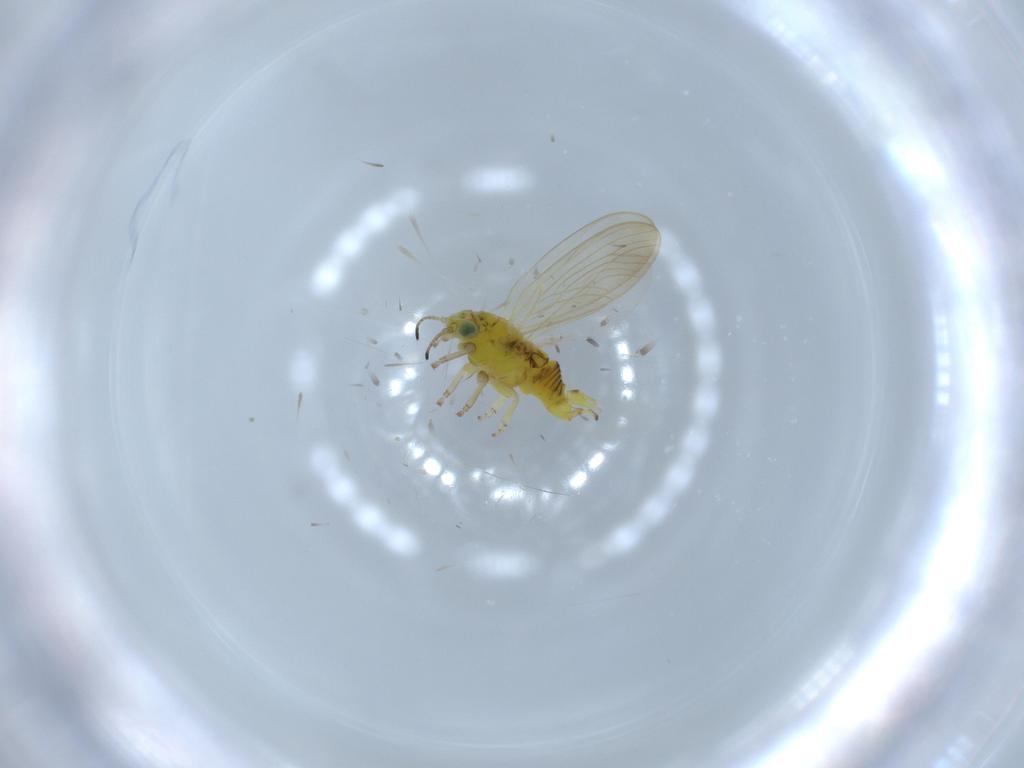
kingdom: Animalia
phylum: Arthropoda
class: Insecta
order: Hemiptera
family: Aphalaridae
